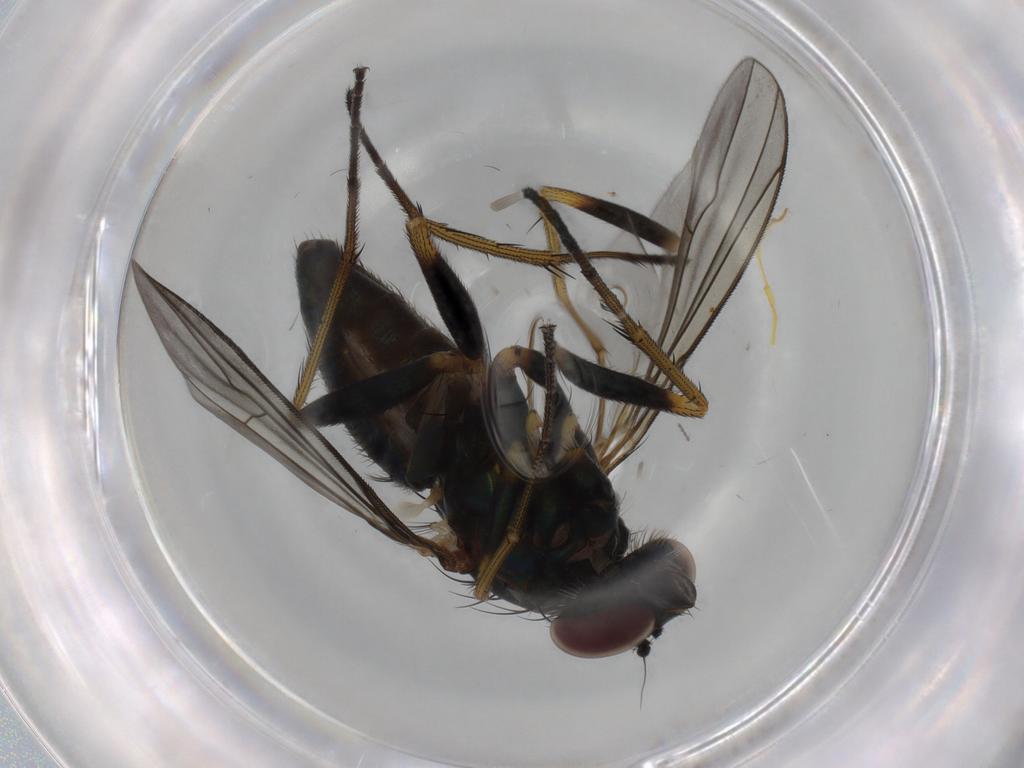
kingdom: Animalia
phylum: Arthropoda
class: Insecta
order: Diptera
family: Dolichopodidae
